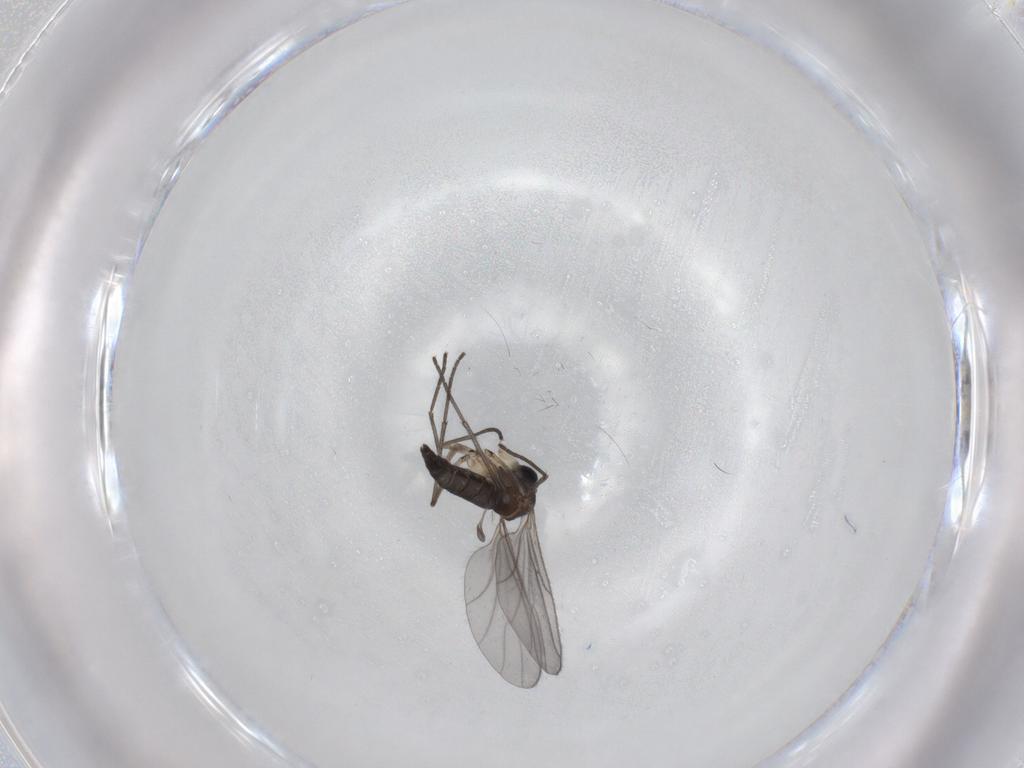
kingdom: Animalia
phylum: Arthropoda
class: Insecta
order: Diptera
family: Sciaridae
